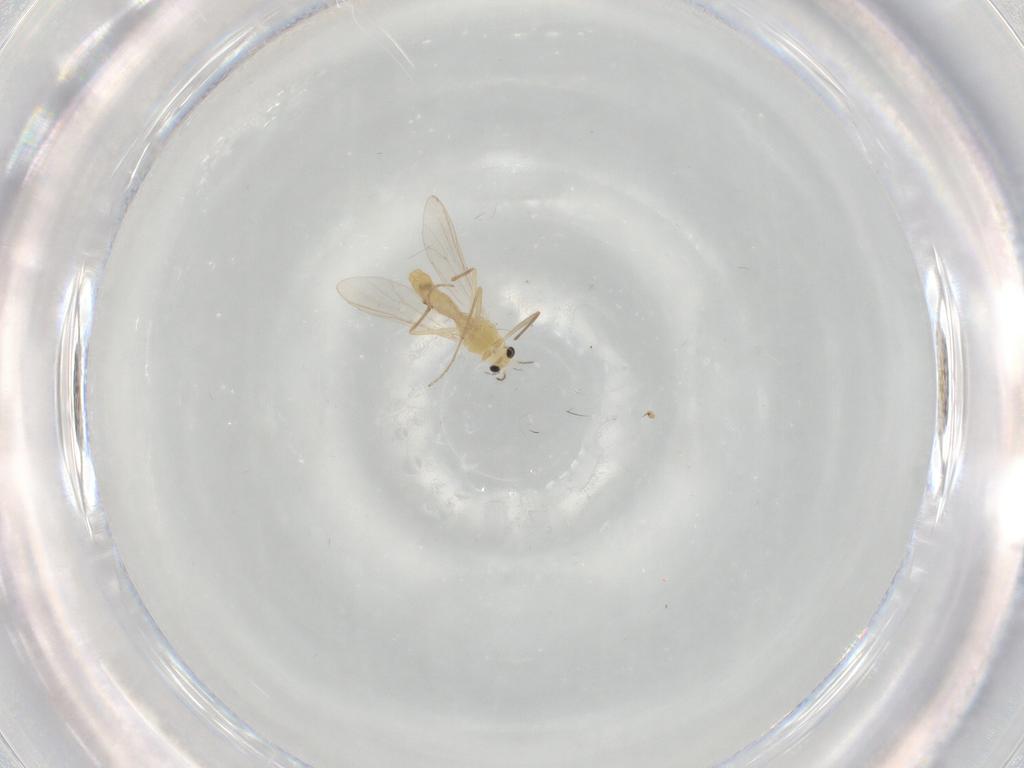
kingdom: Animalia
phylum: Arthropoda
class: Insecta
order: Diptera
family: Chironomidae
